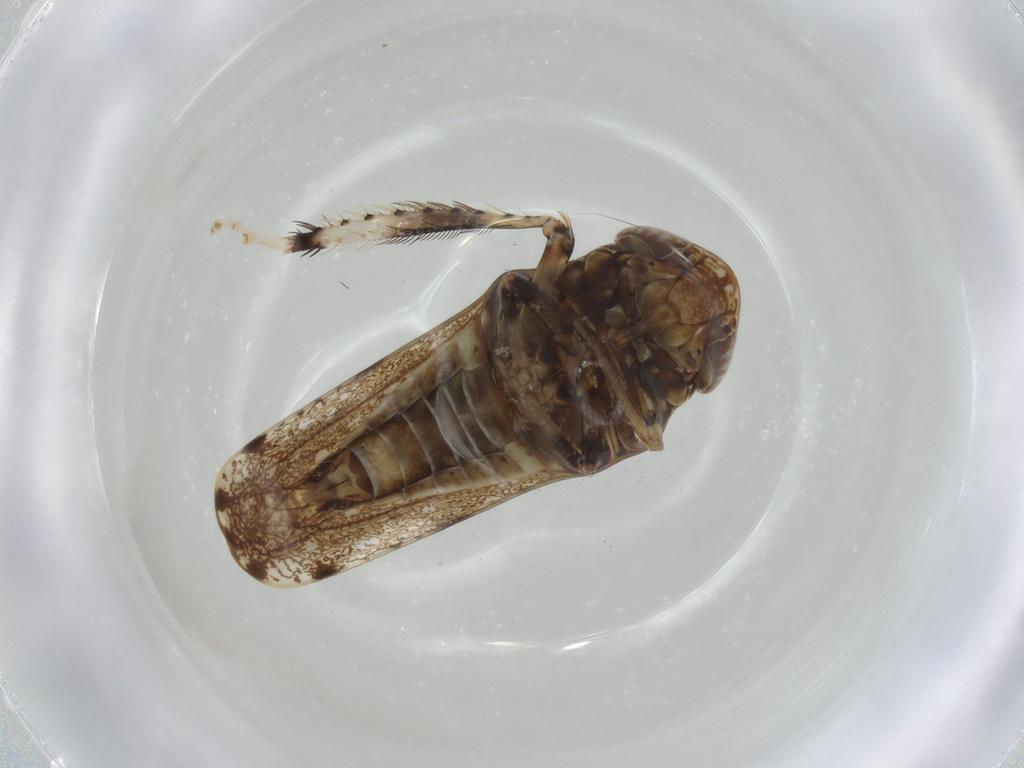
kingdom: Animalia
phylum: Arthropoda
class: Insecta
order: Hemiptera
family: Cicadellidae
